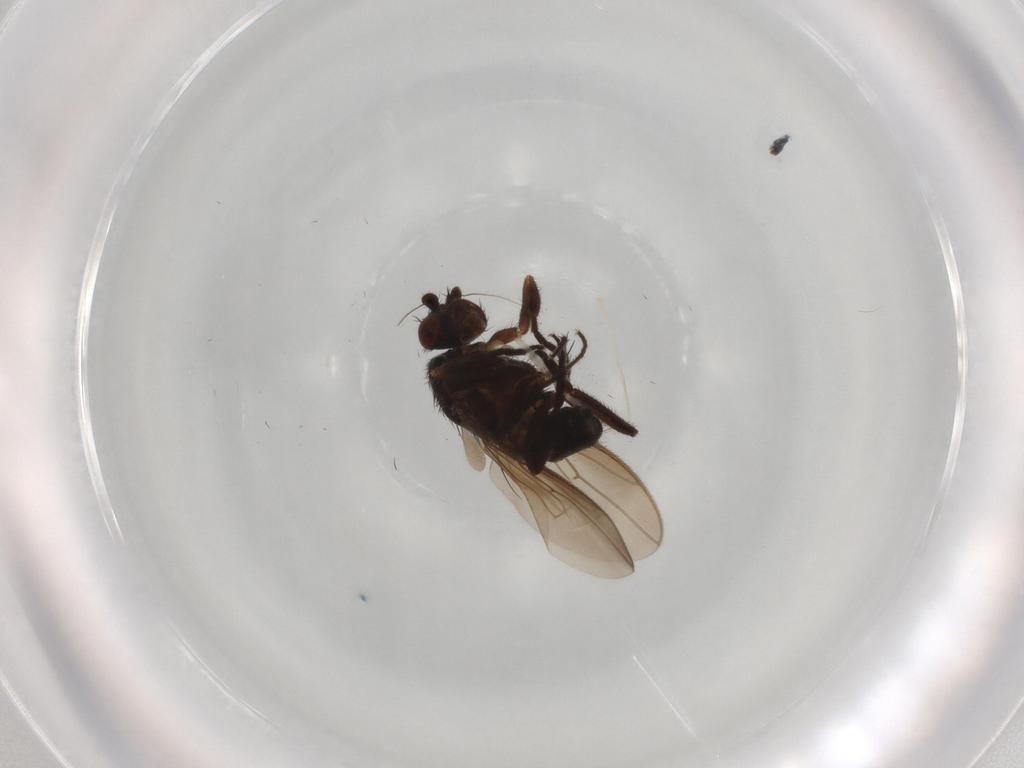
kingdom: Animalia
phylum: Arthropoda
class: Insecta
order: Diptera
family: Sphaeroceridae
